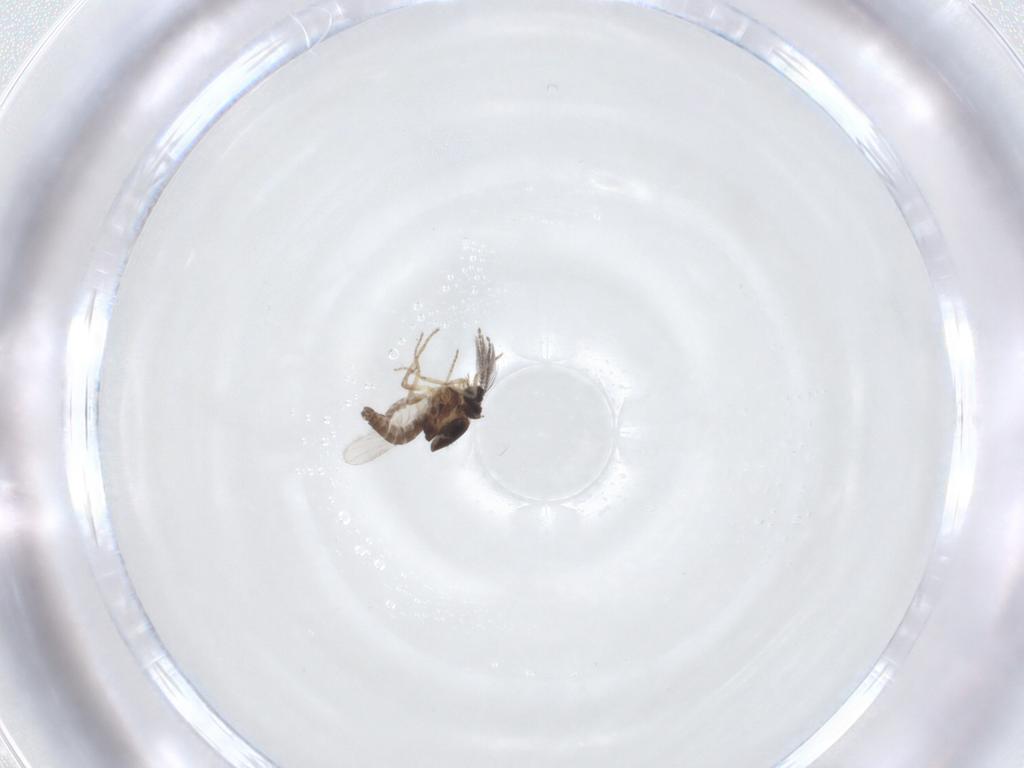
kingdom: Animalia
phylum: Arthropoda
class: Insecta
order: Diptera
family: Ceratopogonidae
